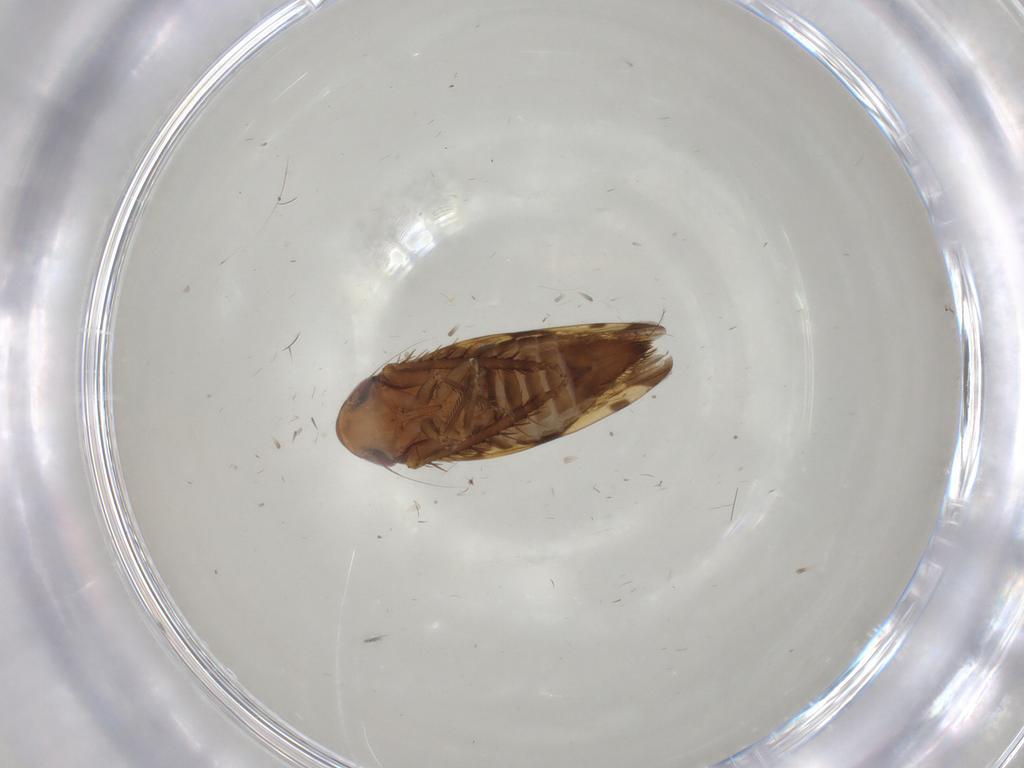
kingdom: Animalia
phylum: Arthropoda
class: Insecta
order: Hemiptera
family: Cicadellidae
